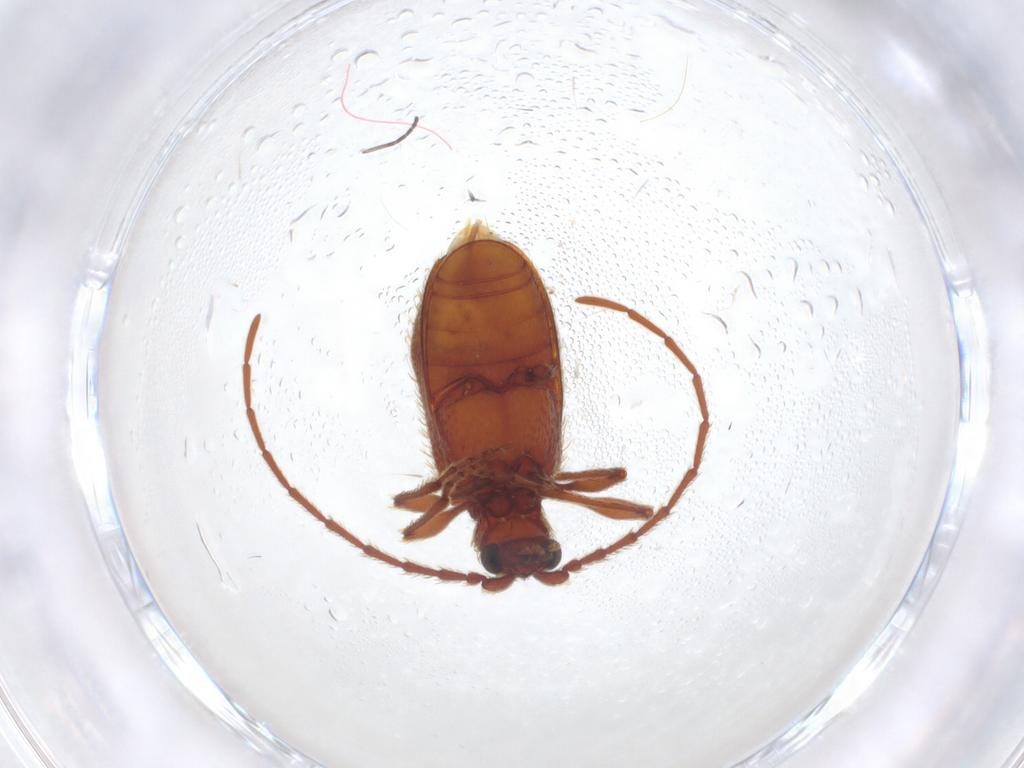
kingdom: Animalia
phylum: Arthropoda
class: Insecta
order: Coleoptera
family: Ptinidae
